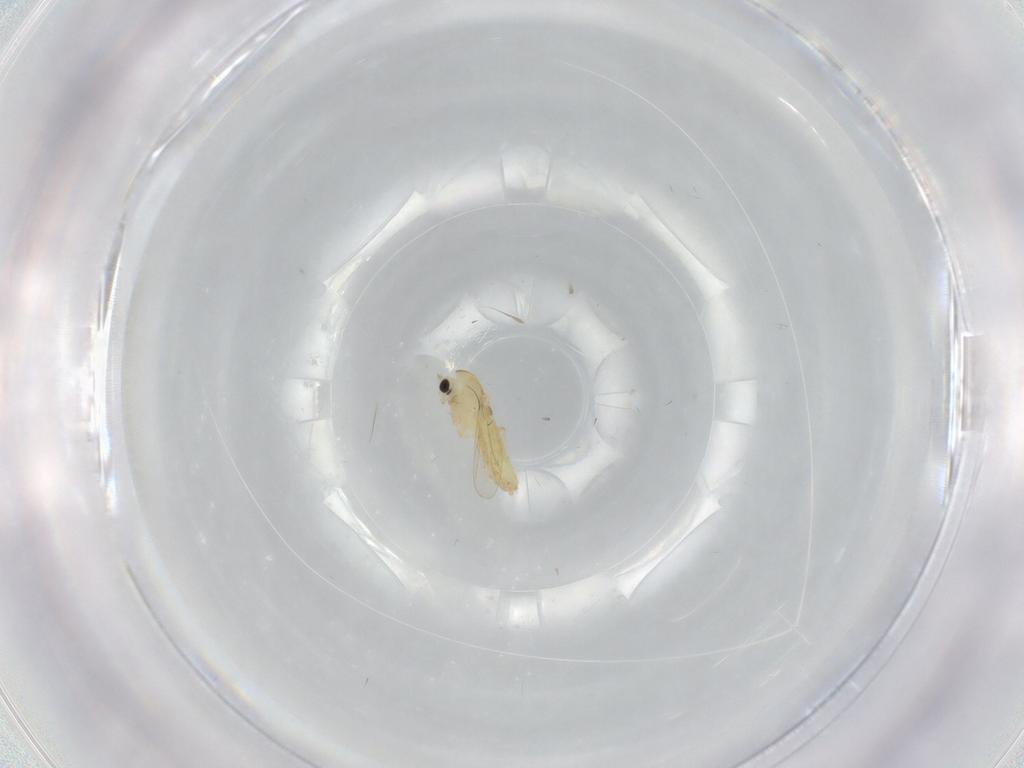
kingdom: Animalia
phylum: Arthropoda
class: Insecta
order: Diptera
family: Chironomidae
